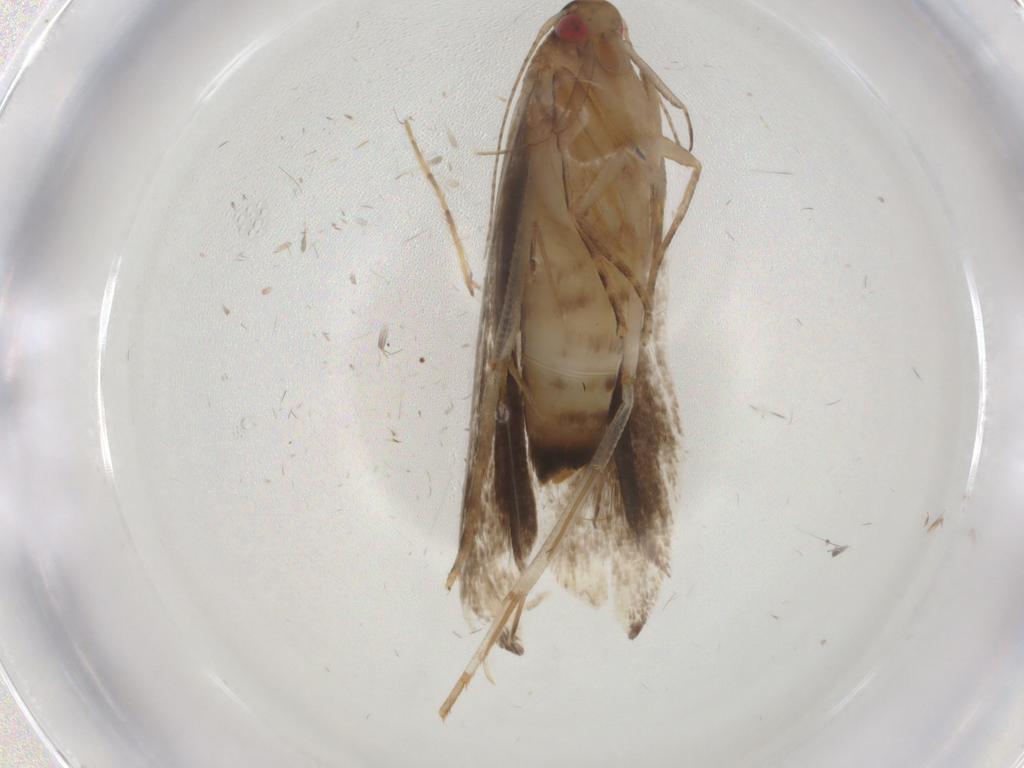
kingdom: Animalia
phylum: Arthropoda
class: Insecta
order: Lepidoptera
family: Gelechiidae
